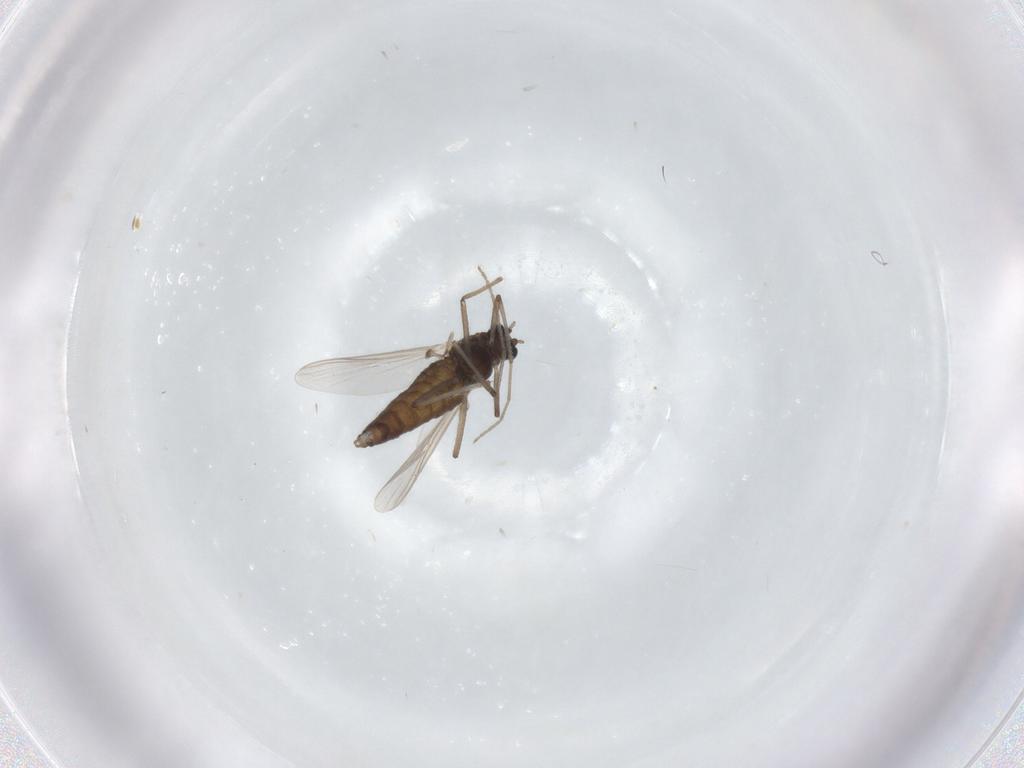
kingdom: Animalia
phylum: Arthropoda
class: Insecta
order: Diptera
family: Chironomidae
